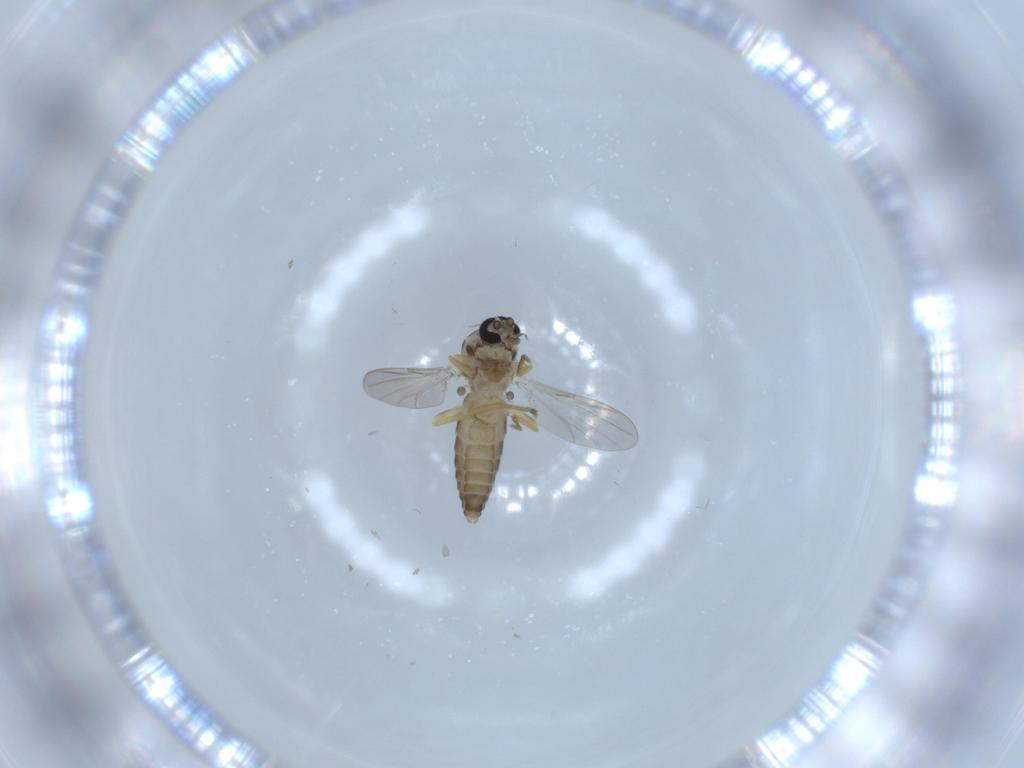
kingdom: Animalia
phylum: Arthropoda
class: Insecta
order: Diptera
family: Ceratopogonidae
